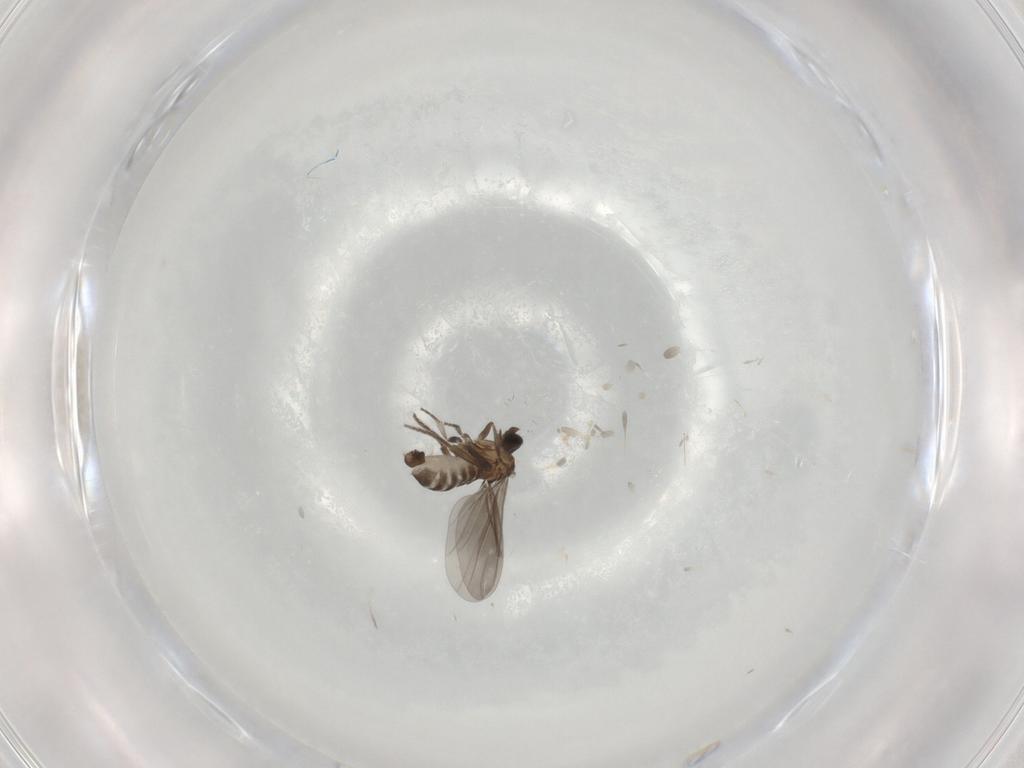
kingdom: Animalia
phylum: Arthropoda
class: Insecta
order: Diptera
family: Phoridae
